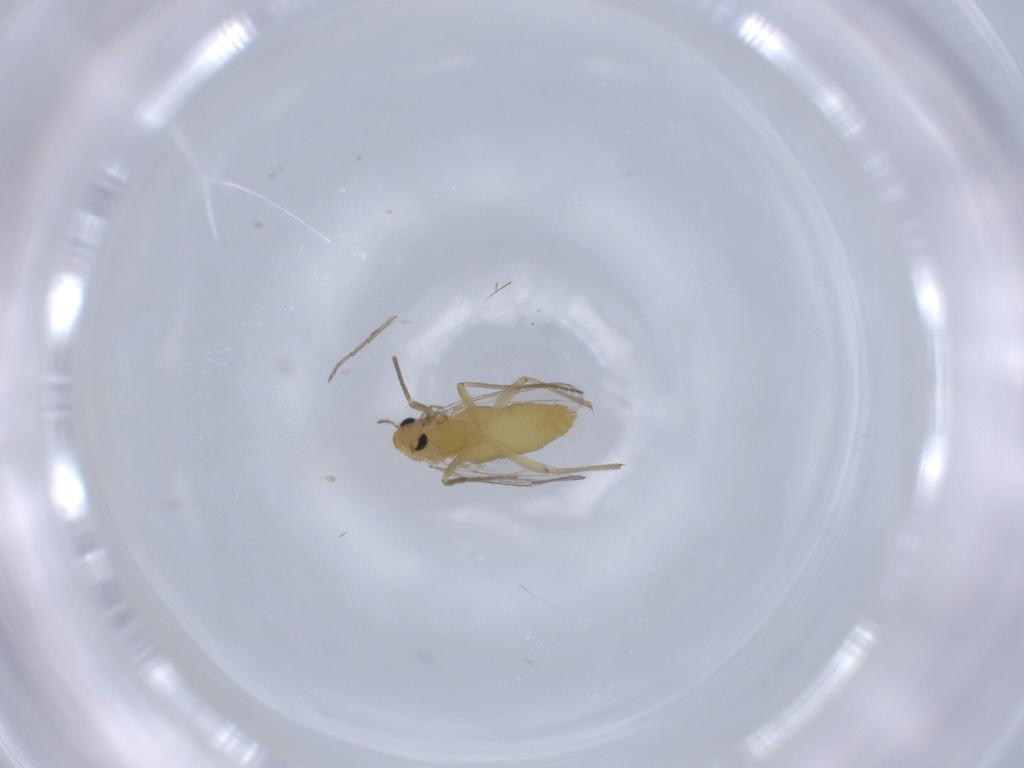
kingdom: Animalia
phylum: Arthropoda
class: Insecta
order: Diptera
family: Chironomidae
